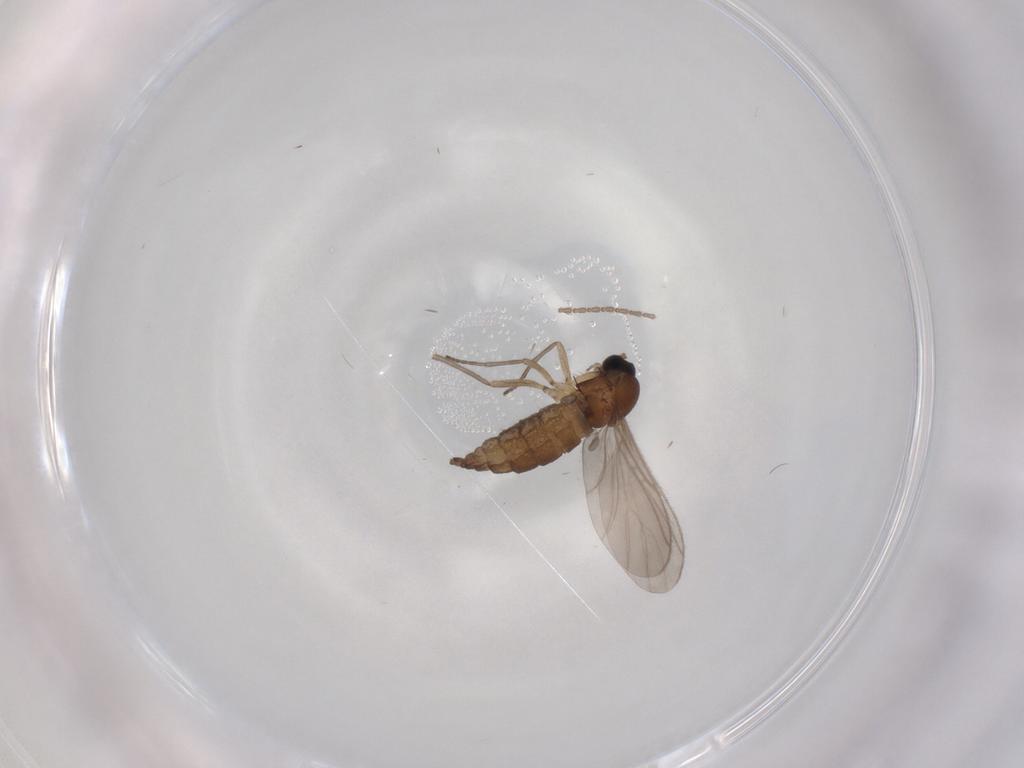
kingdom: Animalia
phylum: Arthropoda
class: Insecta
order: Diptera
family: Sciaridae
